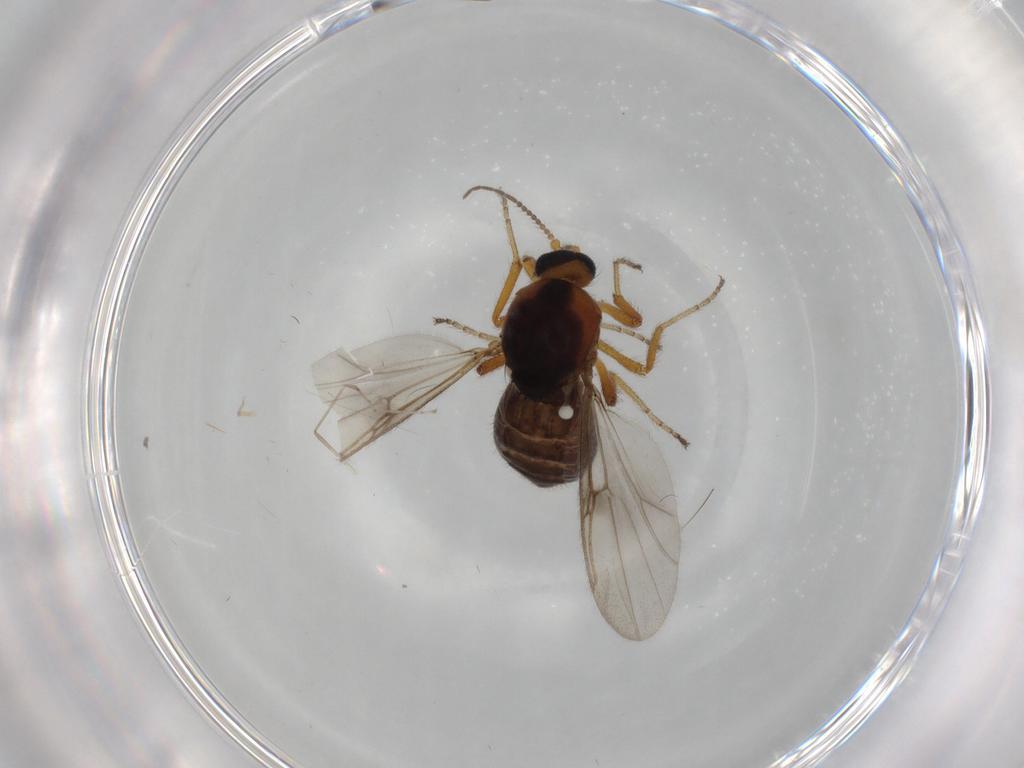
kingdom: Animalia
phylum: Arthropoda
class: Insecta
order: Diptera
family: Ceratopogonidae
